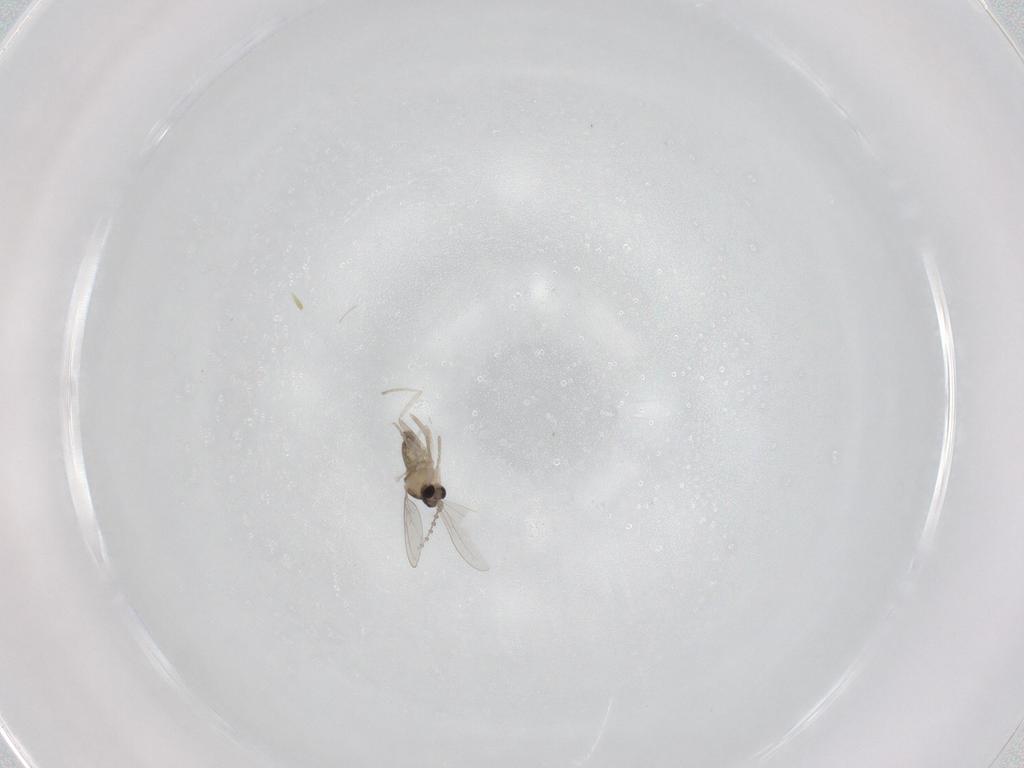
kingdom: Animalia
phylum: Arthropoda
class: Insecta
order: Diptera
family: Cecidomyiidae
